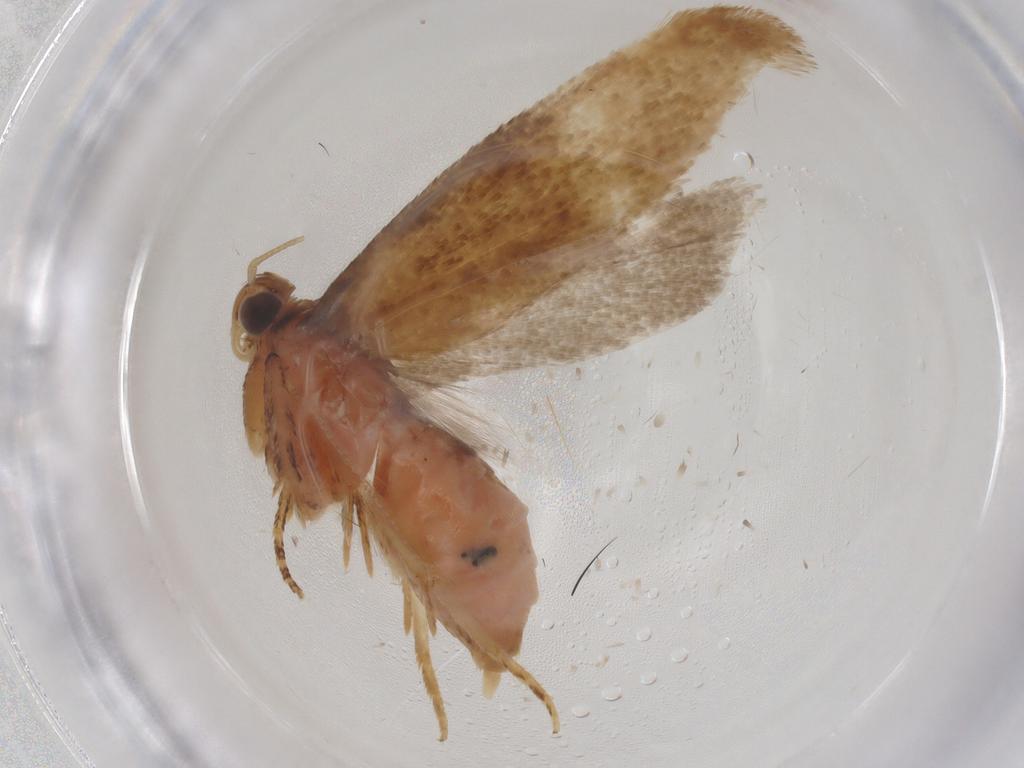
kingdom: Animalia
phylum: Arthropoda
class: Insecta
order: Lepidoptera
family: Gelechiidae
